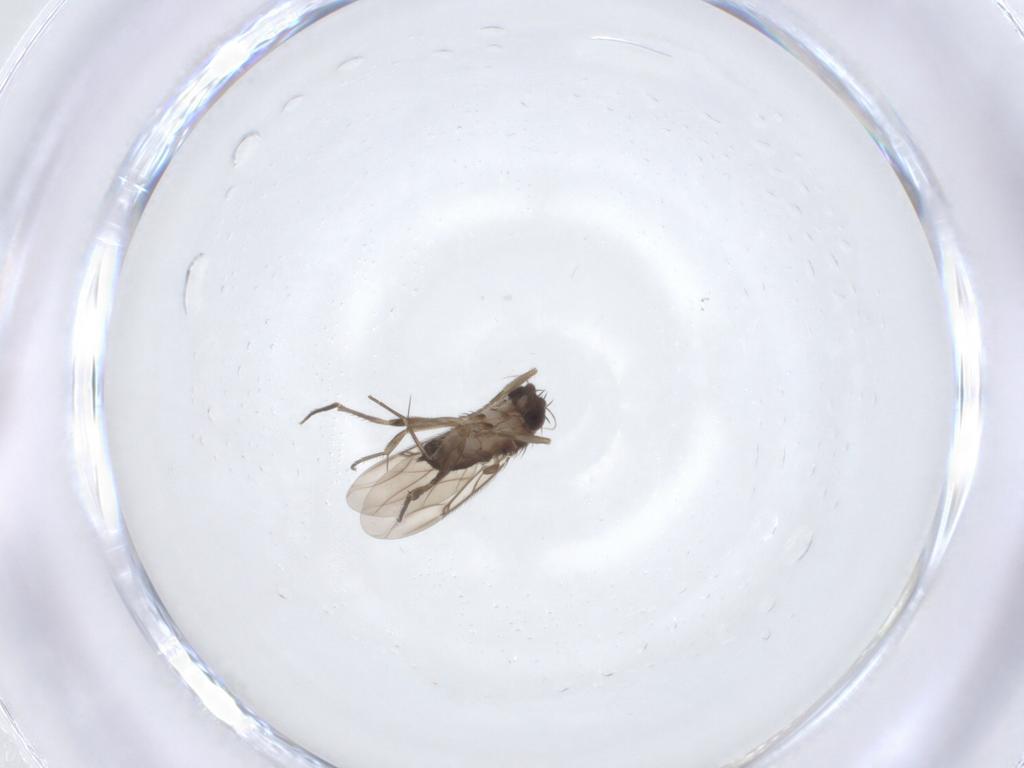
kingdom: Animalia
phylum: Arthropoda
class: Insecta
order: Diptera
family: Phoridae
